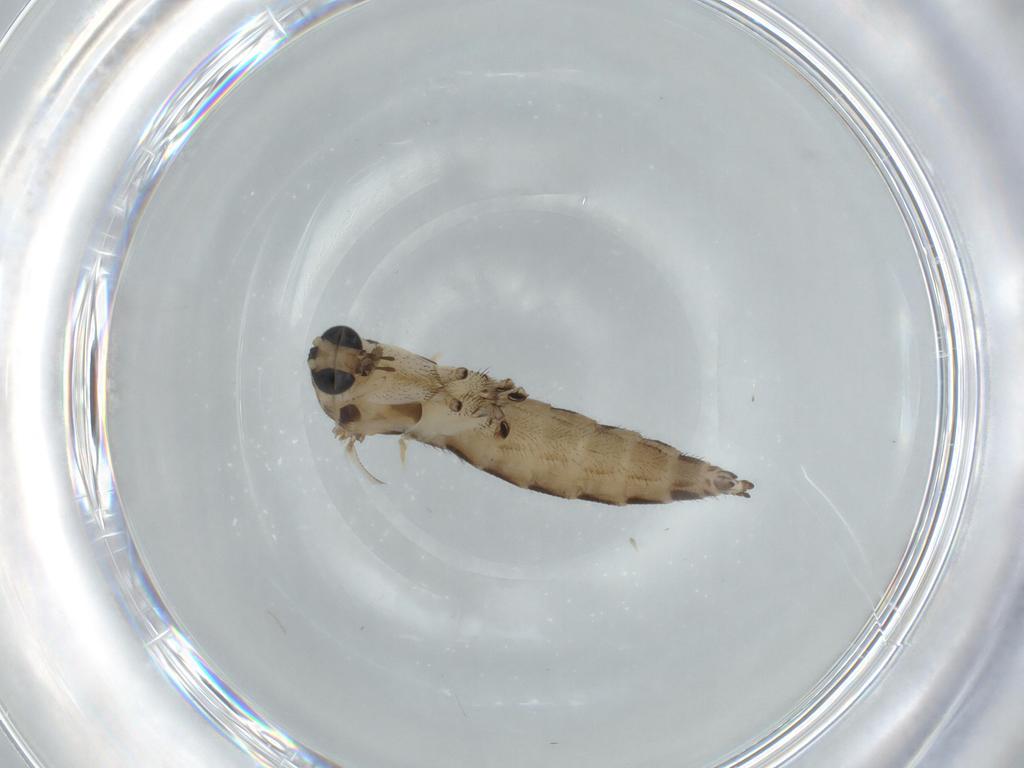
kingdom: Animalia
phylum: Arthropoda
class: Insecta
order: Diptera
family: Sciaridae
